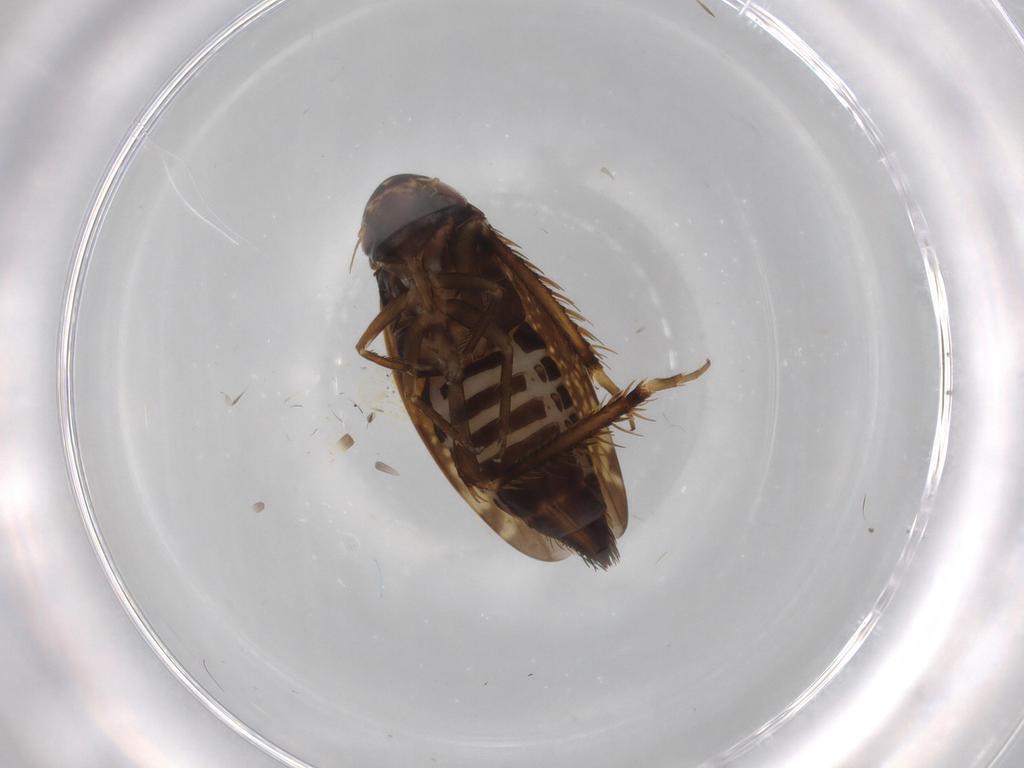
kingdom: Animalia
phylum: Arthropoda
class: Insecta
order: Hemiptera
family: Cicadellidae
